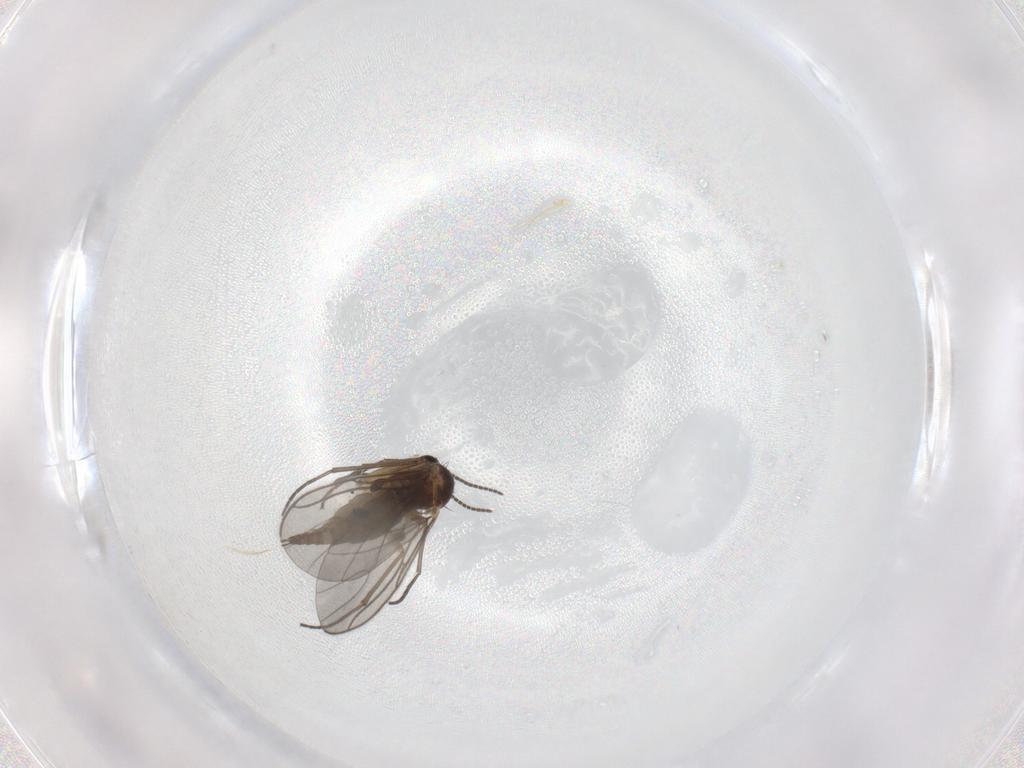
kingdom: Animalia
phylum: Arthropoda
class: Insecta
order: Diptera
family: Sciaridae
